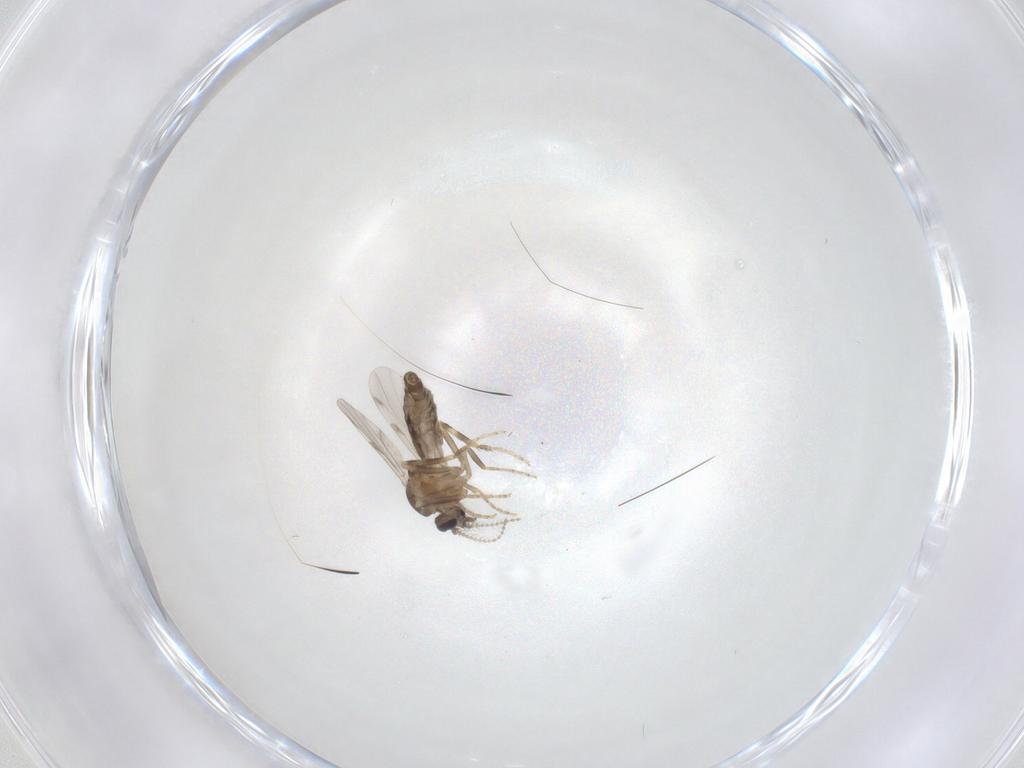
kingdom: Animalia
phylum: Arthropoda
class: Insecta
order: Diptera
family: Ceratopogonidae
